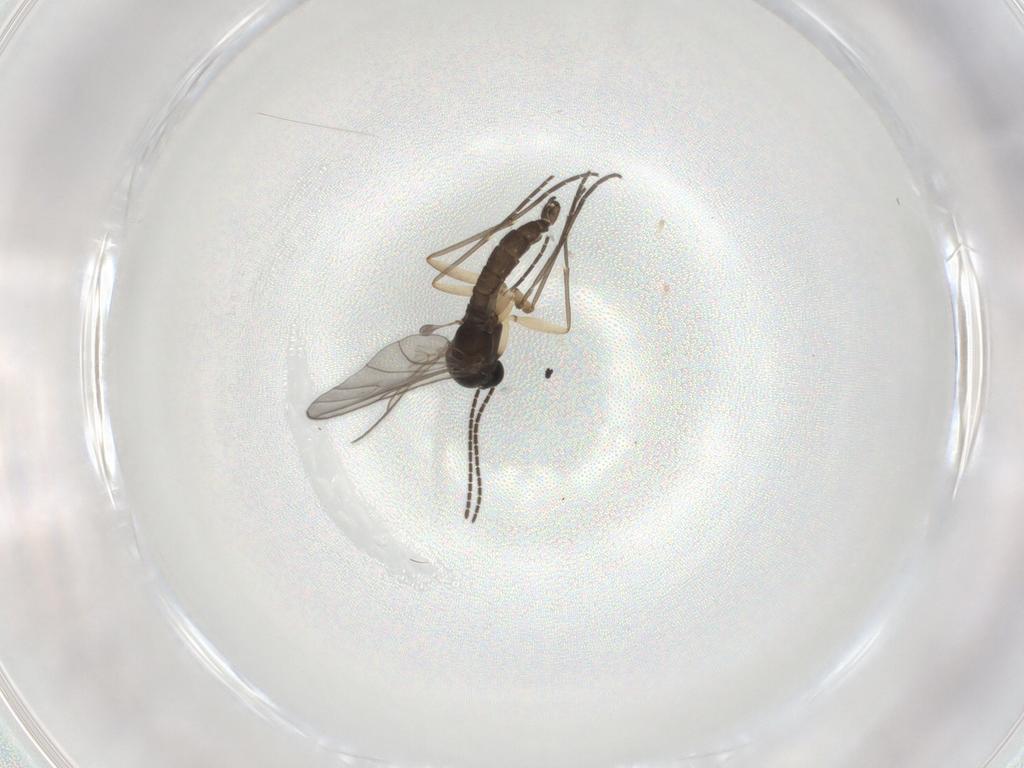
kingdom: Animalia
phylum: Arthropoda
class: Insecta
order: Diptera
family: Sciaridae
